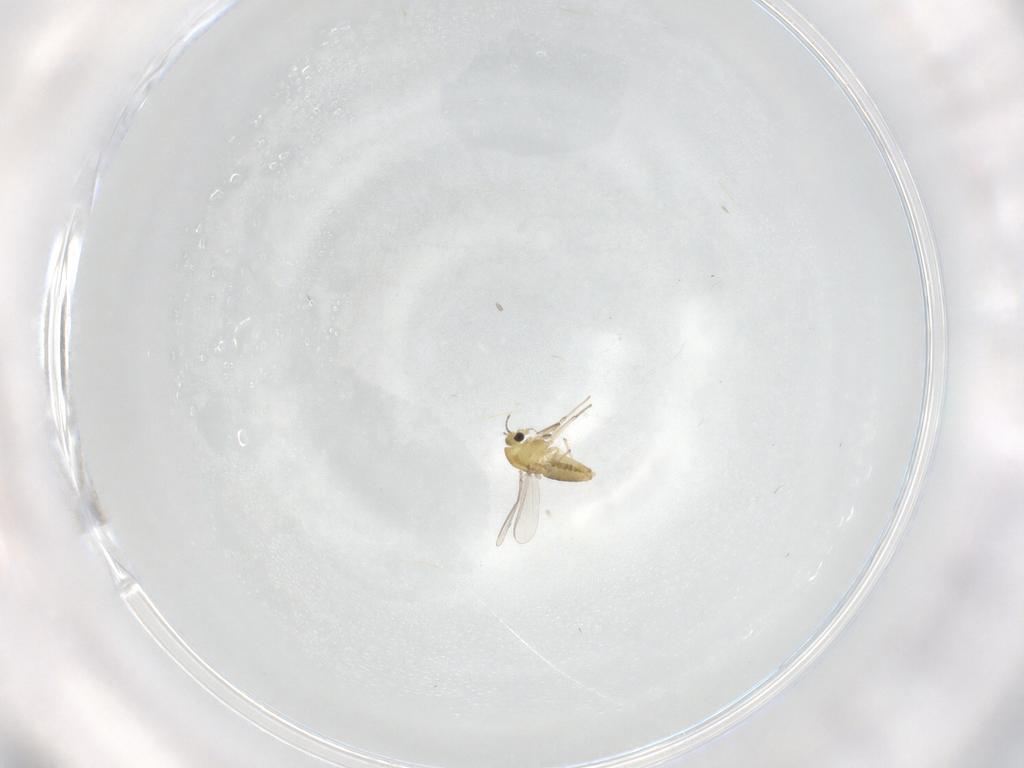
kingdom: Animalia
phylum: Arthropoda
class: Insecta
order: Diptera
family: Chironomidae
